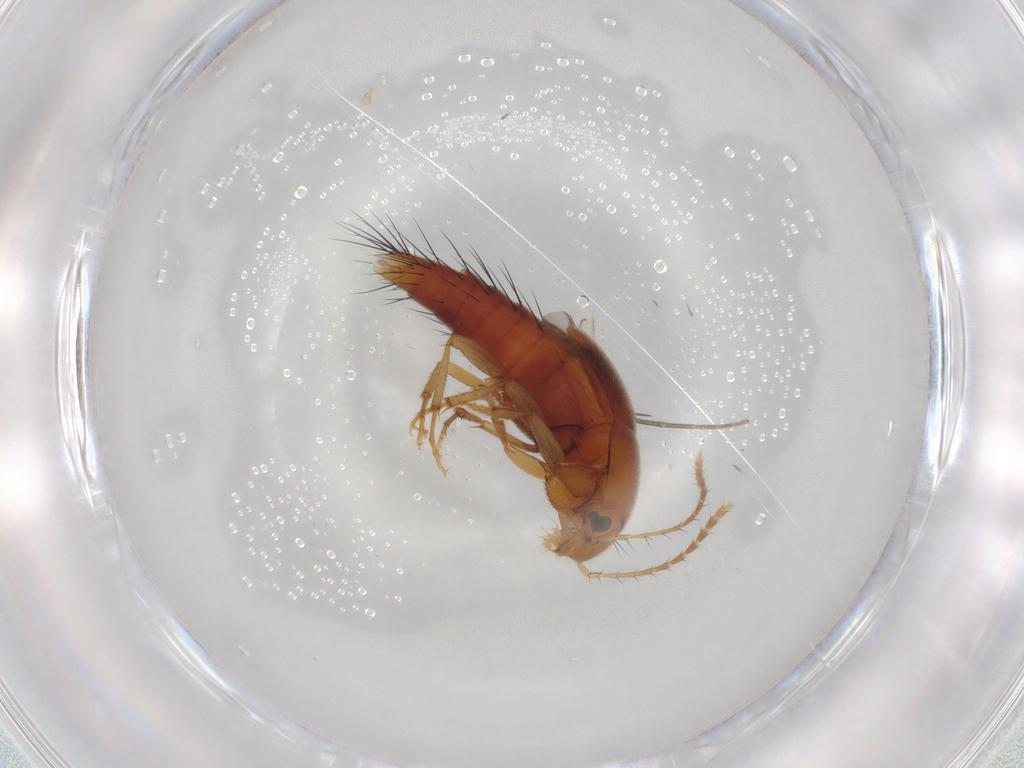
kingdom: Animalia
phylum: Arthropoda
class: Insecta
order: Coleoptera
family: Staphylinidae
